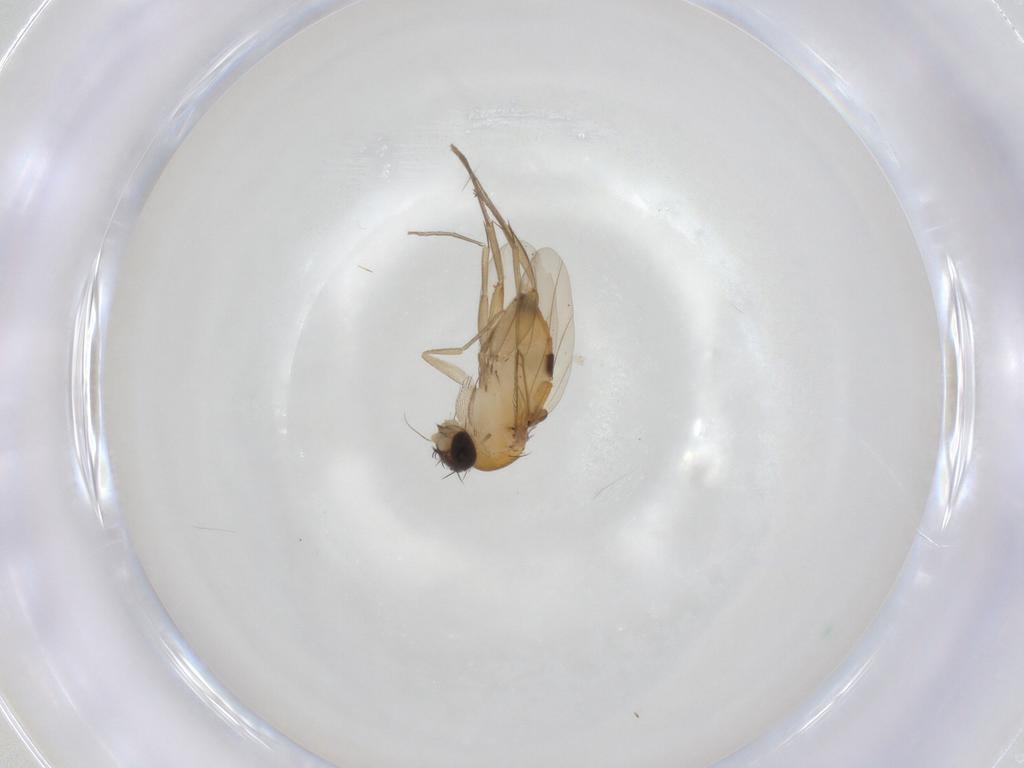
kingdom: Animalia
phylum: Arthropoda
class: Insecta
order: Diptera
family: Phoridae
